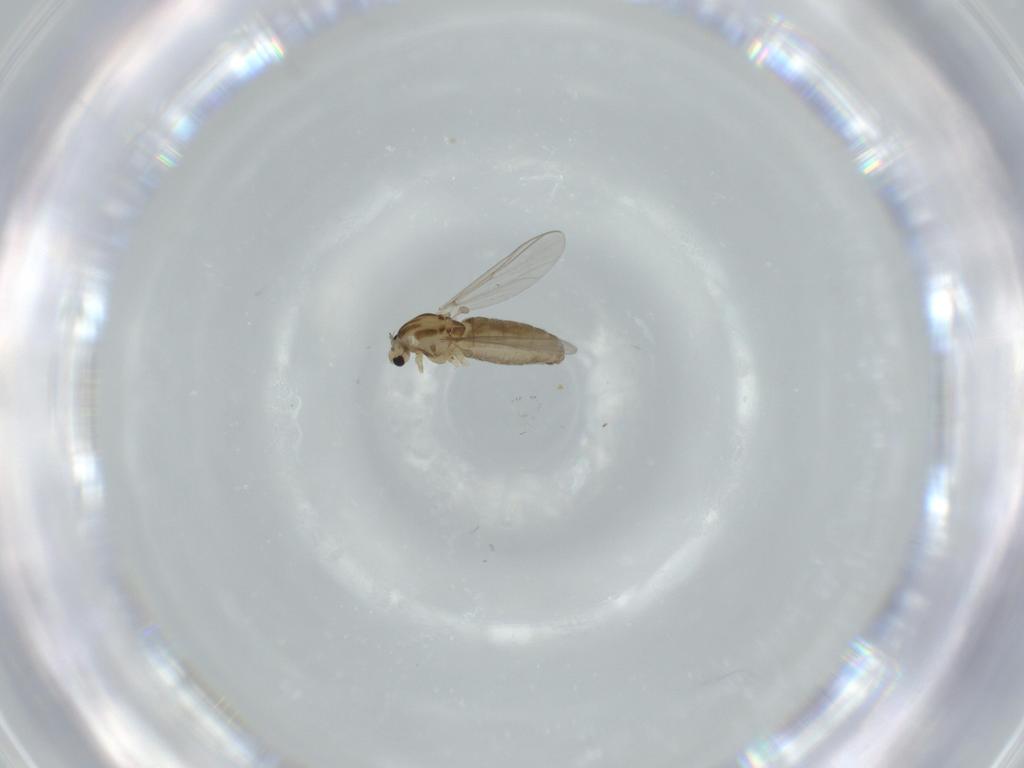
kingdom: Animalia
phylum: Arthropoda
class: Insecta
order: Diptera
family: Chironomidae
